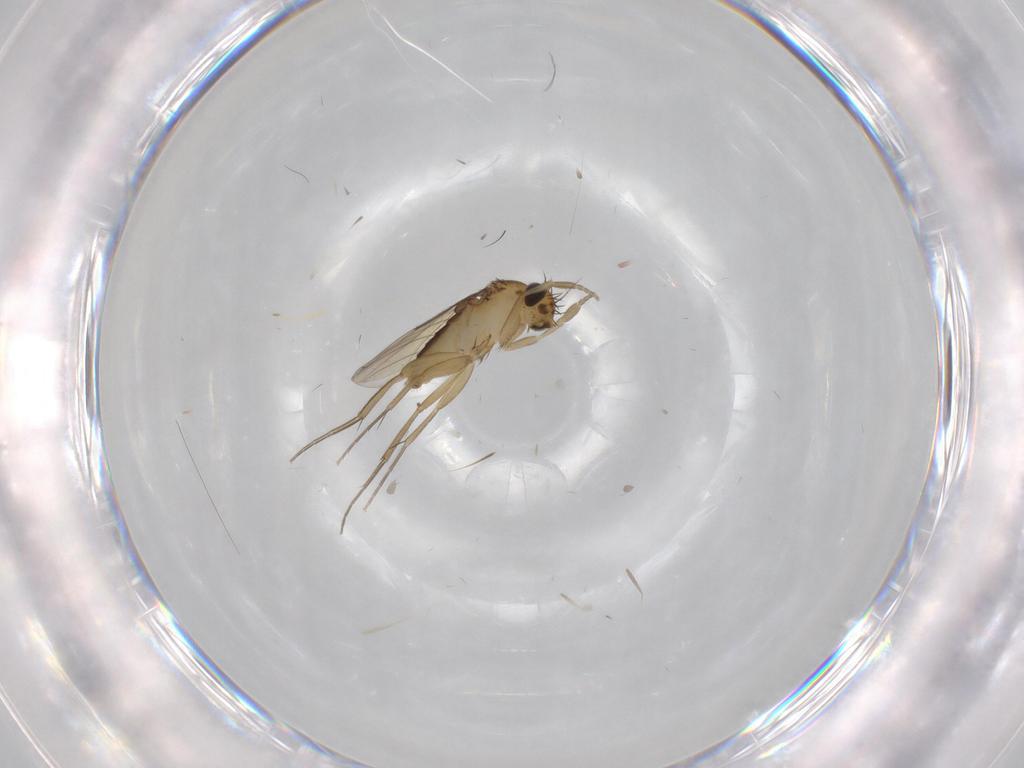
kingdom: Animalia
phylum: Arthropoda
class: Insecta
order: Diptera
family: Phoridae
